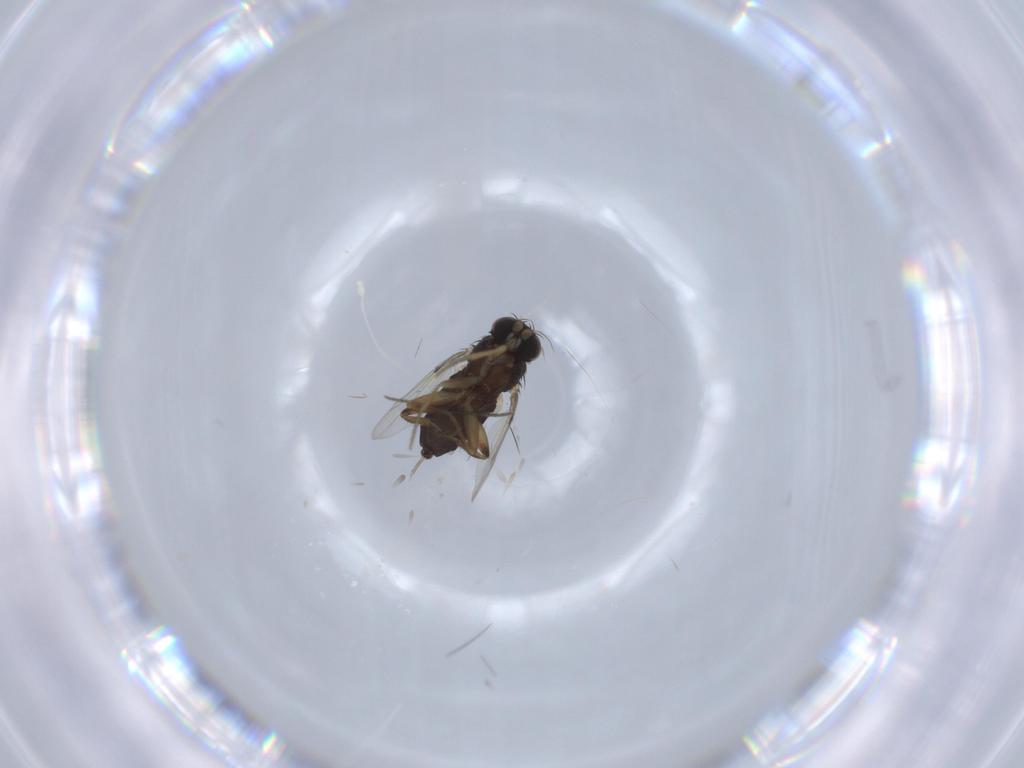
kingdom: Animalia
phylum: Arthropoda
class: Insecta
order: Diptera
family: Phoridae
